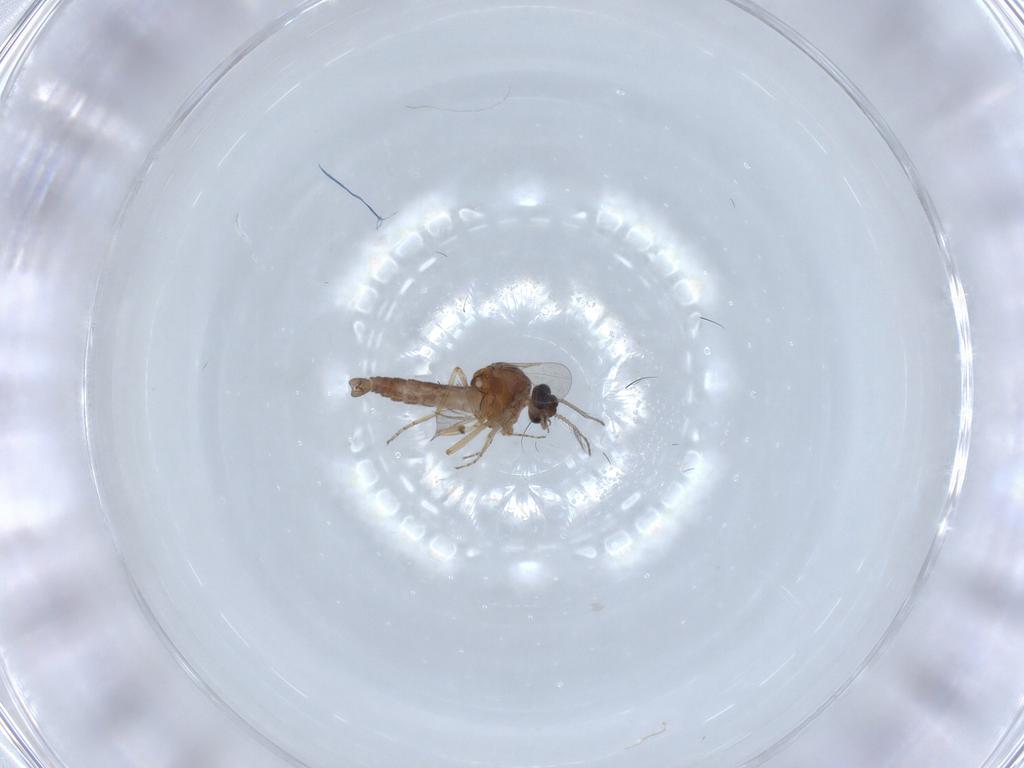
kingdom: Animalia
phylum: Arthropoda
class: Insecta
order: Diptera
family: Ceratopogonidae
